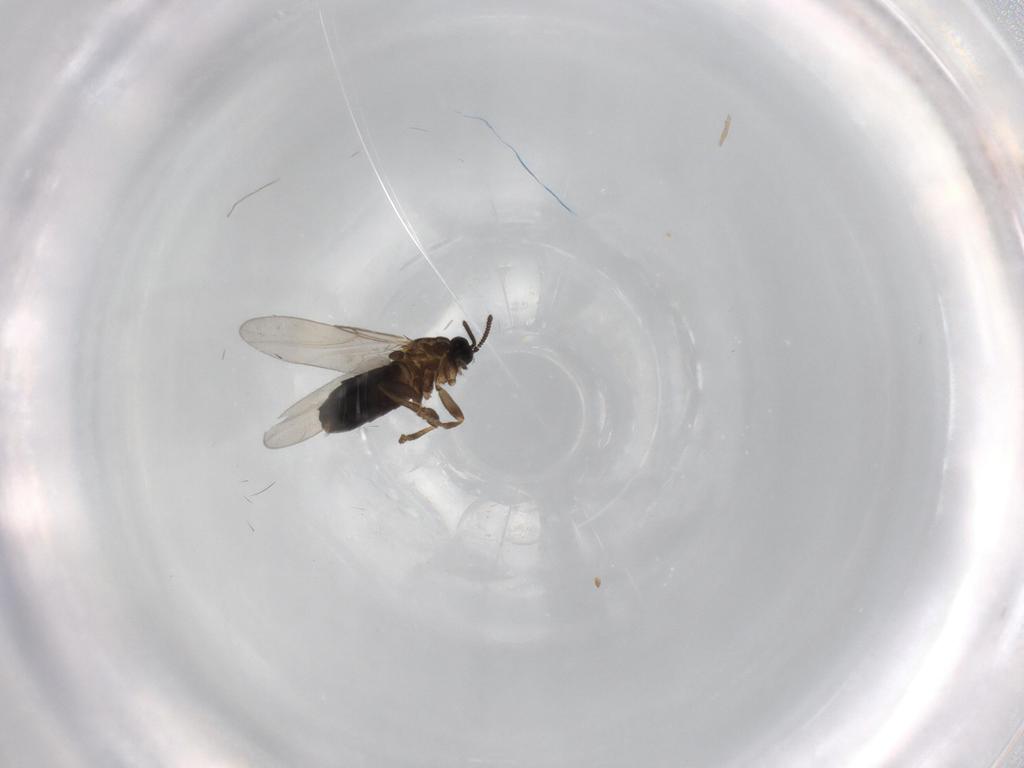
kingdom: Animalia
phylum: Arthropoda
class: Insecta
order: Diptera
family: Scatopsidae
